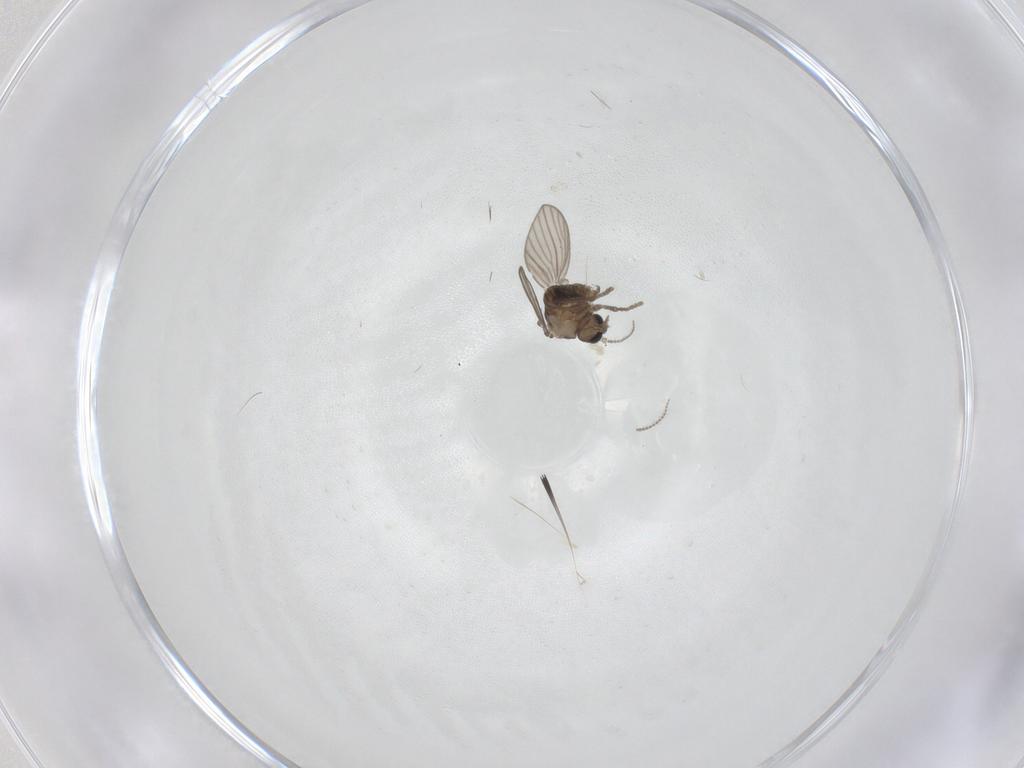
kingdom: Animalia
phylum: Arthropoda
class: Insecta
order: Diptera
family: Psychodidae
